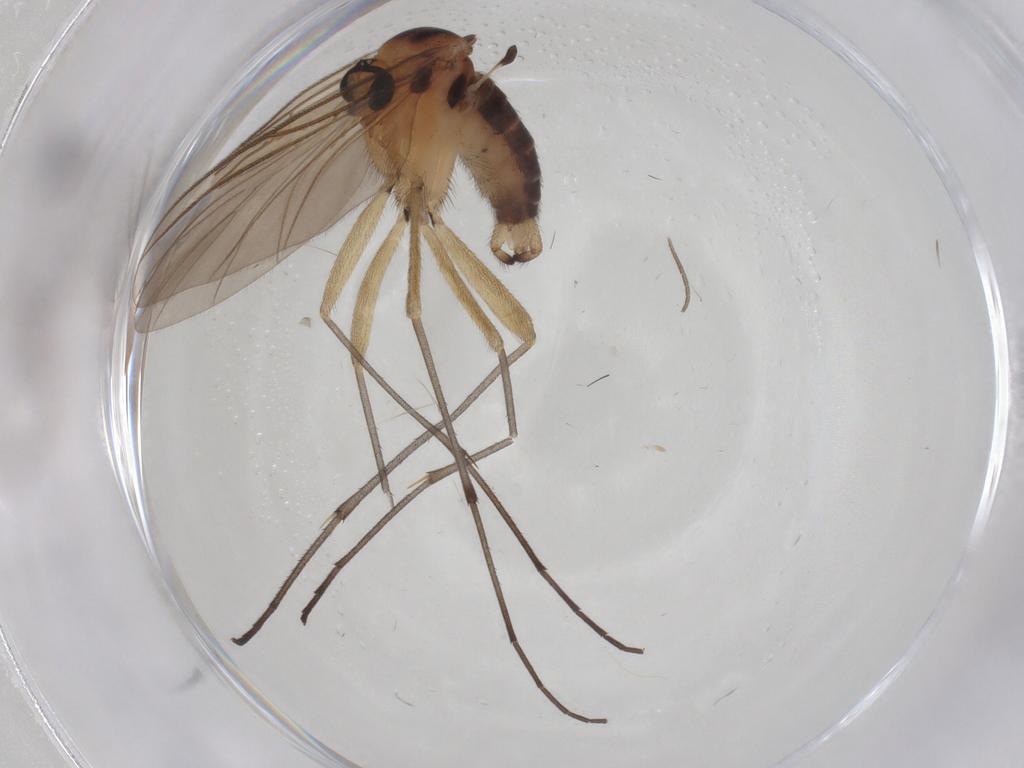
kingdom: Animalia
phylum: Arthropoda
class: Insecta
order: Diptera
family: Sciaridae
